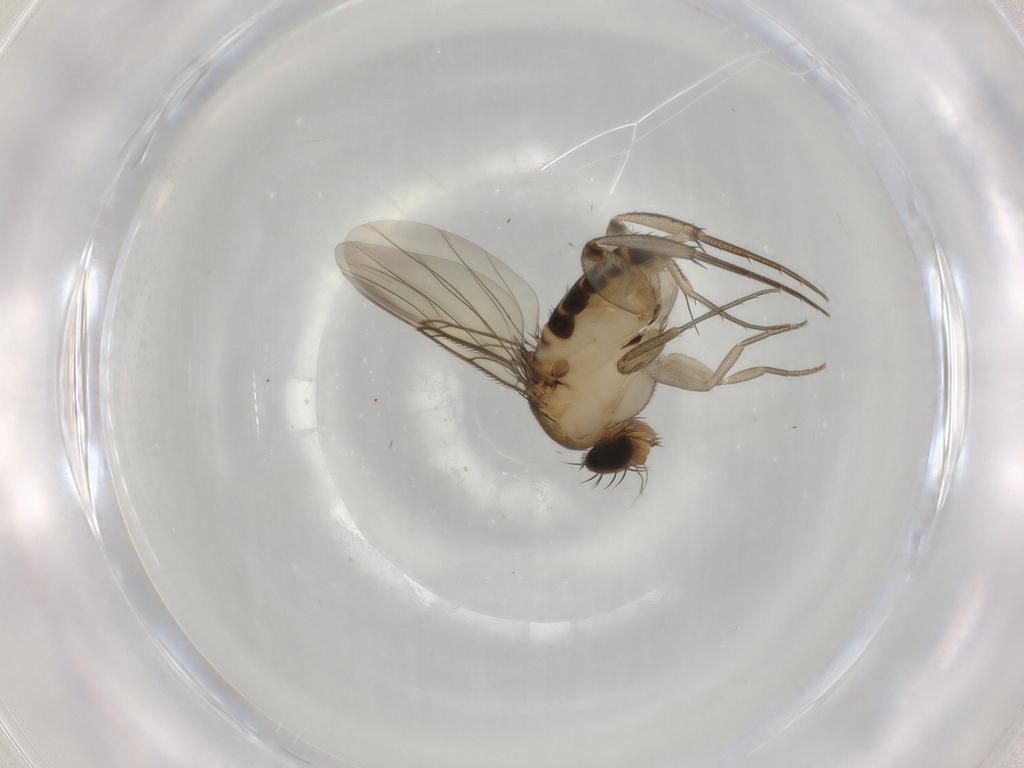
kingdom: Animalia
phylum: Arthropoda
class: Insecta
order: Diptera
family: Phoridae
